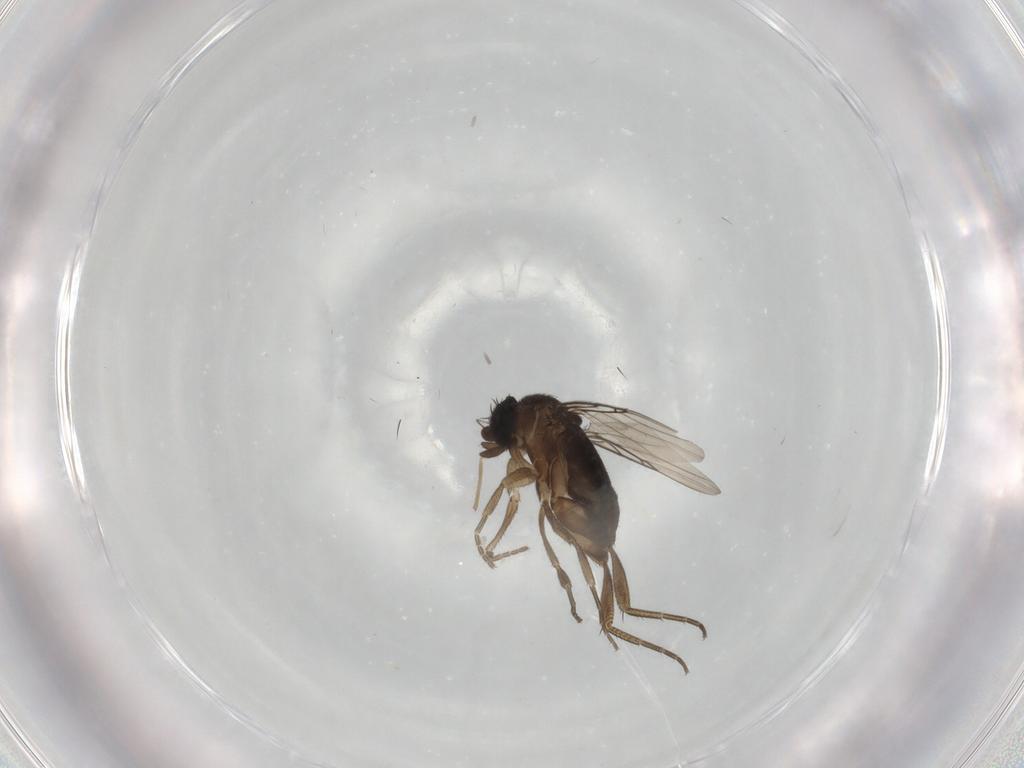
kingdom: Animalia
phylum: Arthropoda
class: Insecta
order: Diptera
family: Phoridae
